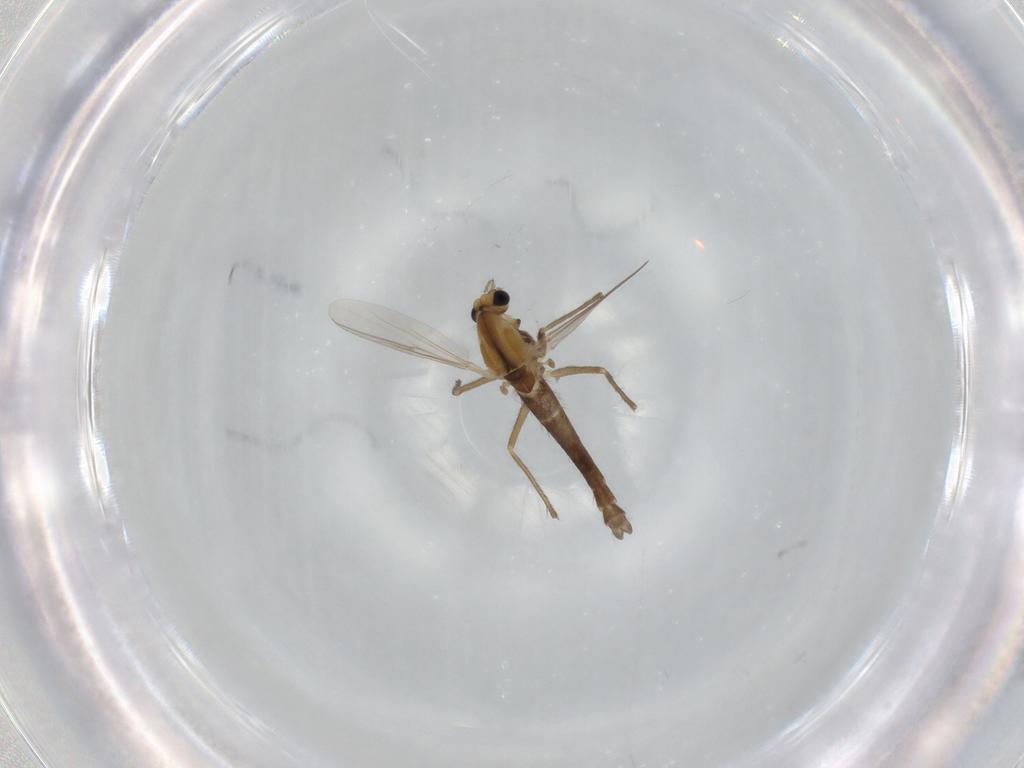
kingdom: Animalia
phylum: Arthropoda
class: Insecta
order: Diptera
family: Chironomidae
